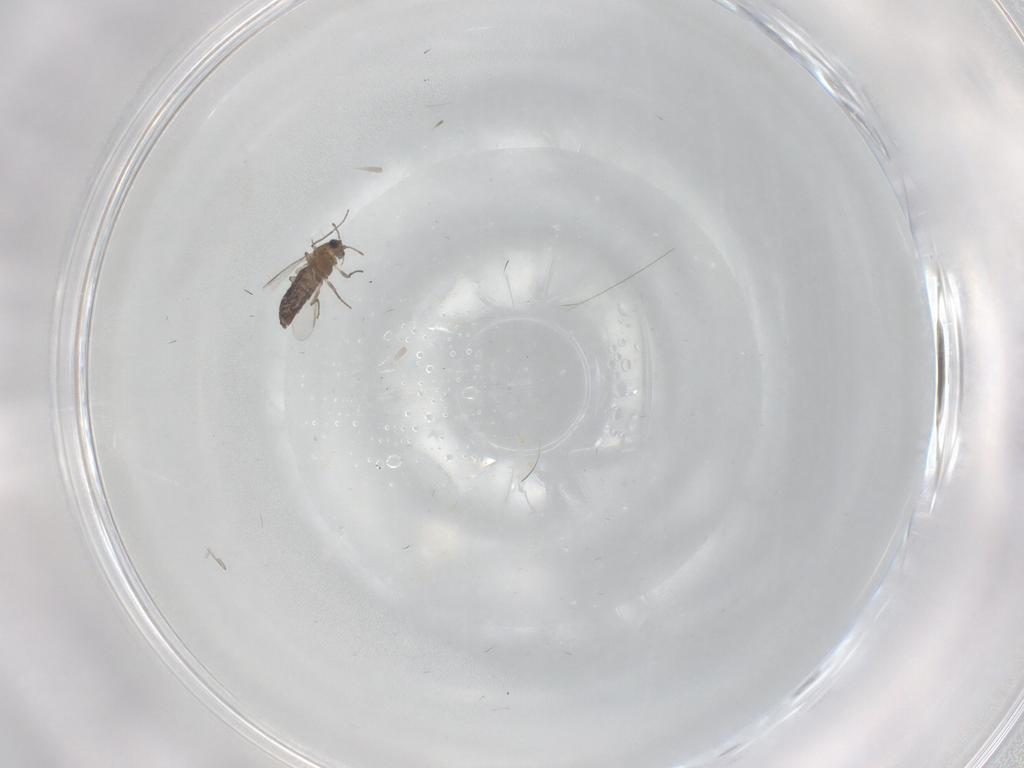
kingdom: Animalia
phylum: Arthropoda
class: Insecta
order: Diptera
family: Chironomidae
